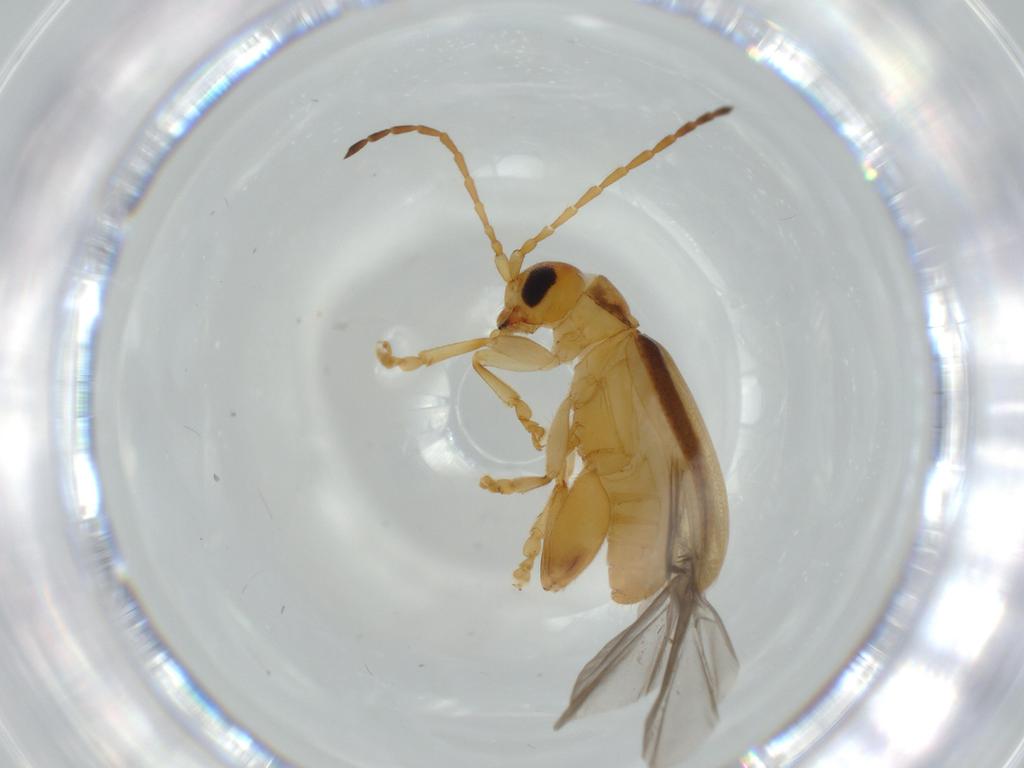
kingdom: Animalia
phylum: Arthropoda
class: Insecta
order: Coleoptera
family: Chrysomelidae
